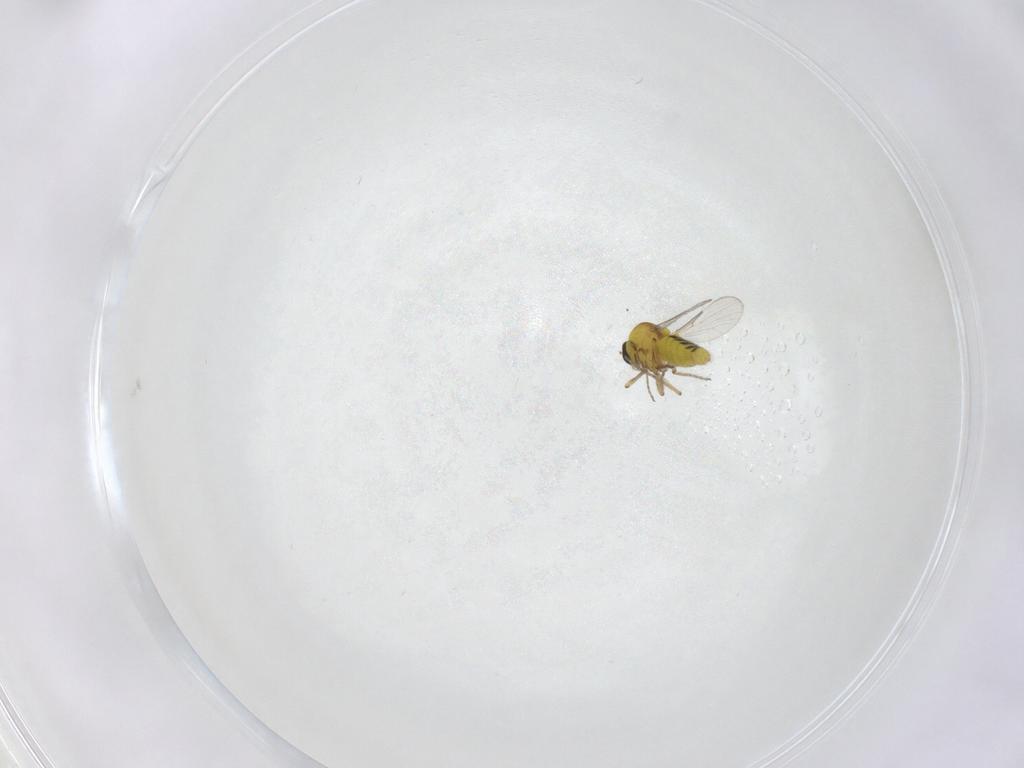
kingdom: Animalia
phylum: Arthropoda
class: Insecta
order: Diptera
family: Ceratopogonidae
